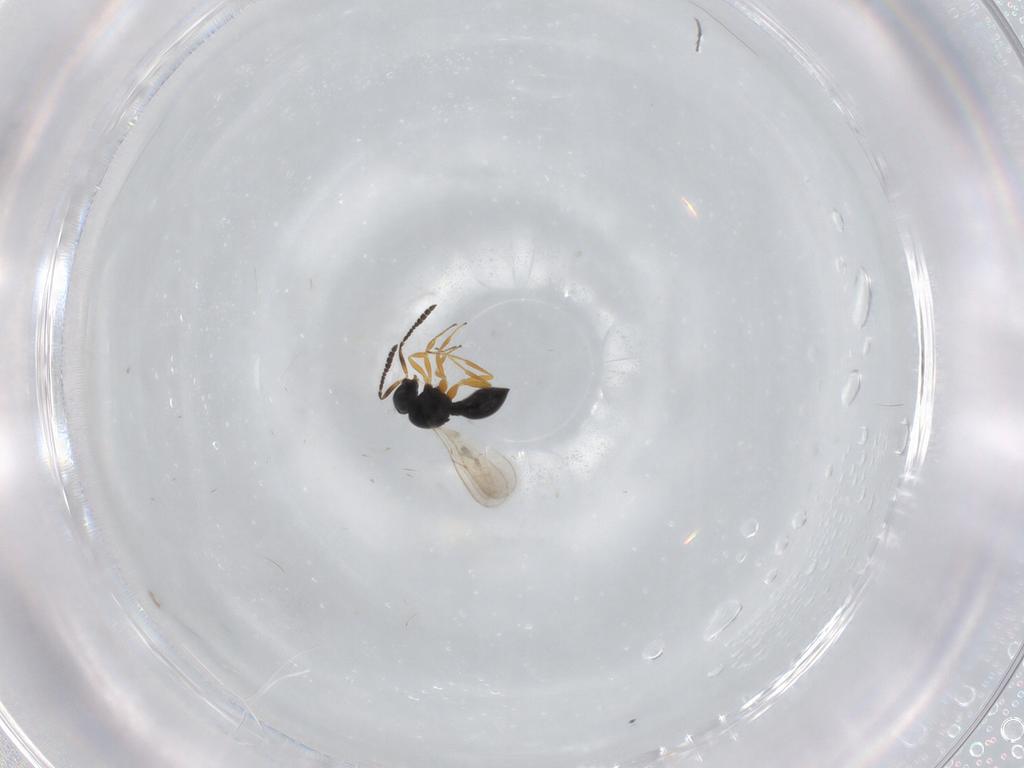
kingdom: Animalia
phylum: Arthropoda
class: Insecta
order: Hymenoptera
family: Scelionidae
